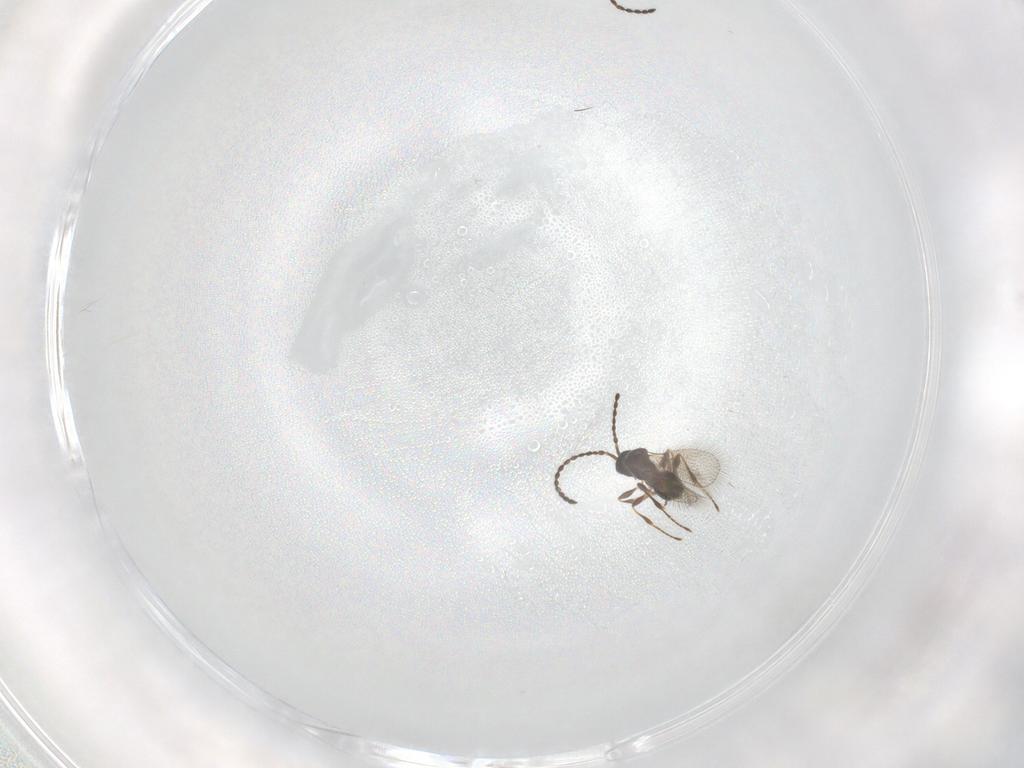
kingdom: Animalia
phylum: Arthropoda
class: Insecta
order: Hymenoptera
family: Diapriidae
